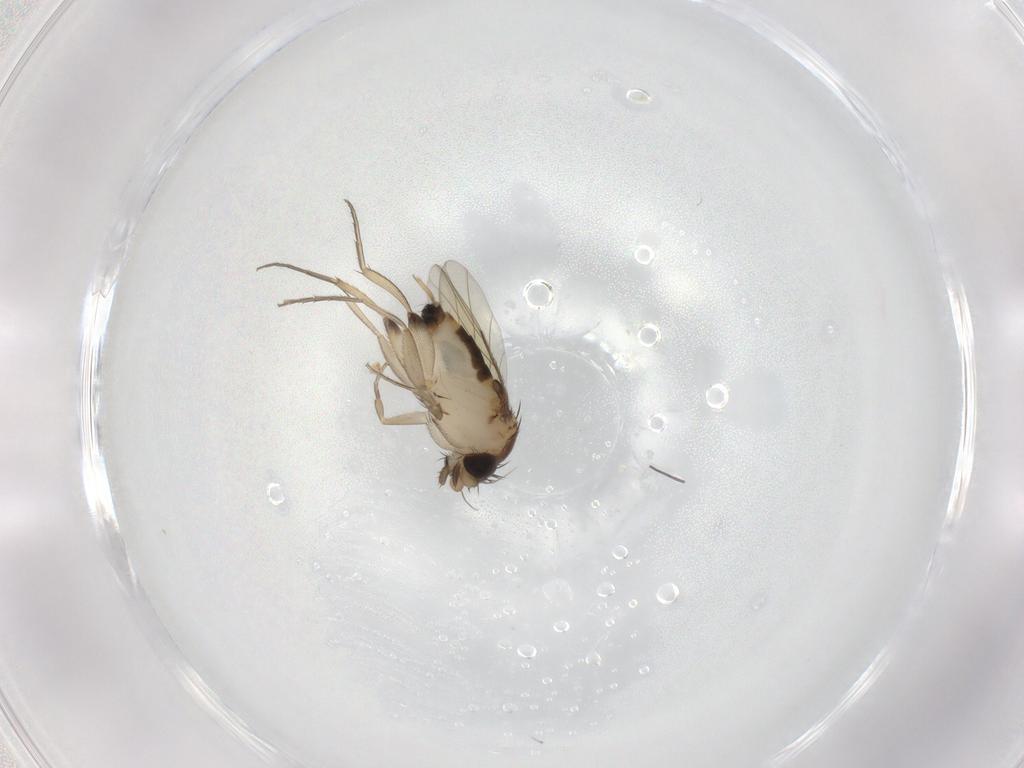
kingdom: Animalia
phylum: Arthropoda
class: Insecta
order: Diptera
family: Phoridae
